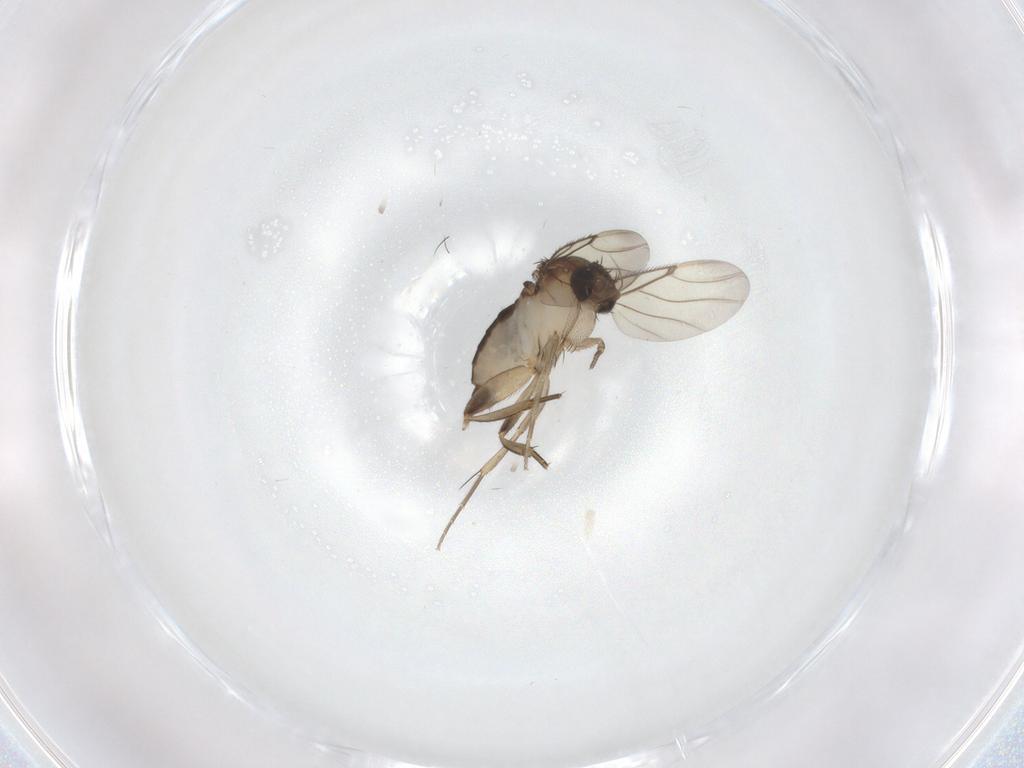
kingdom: Animalia
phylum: Arthropoda
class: Insecta
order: Diptera
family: Phoridae
